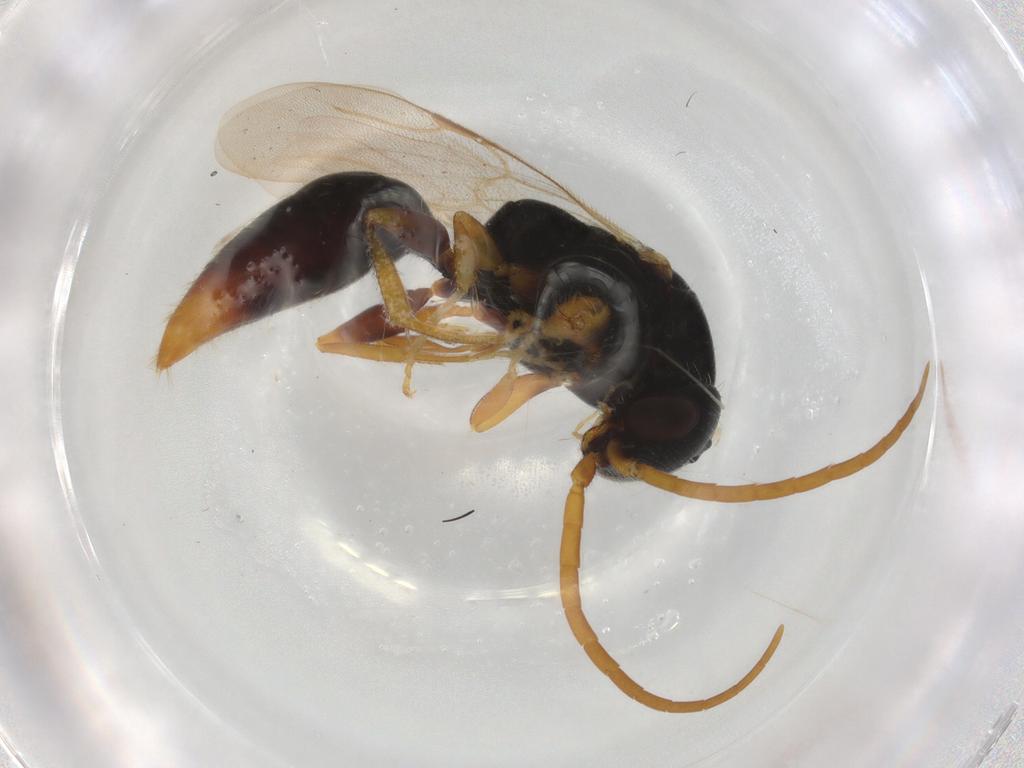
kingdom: Animalia
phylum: Arthropoda
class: Insecta
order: Hymenoptera
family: Bethylidae
